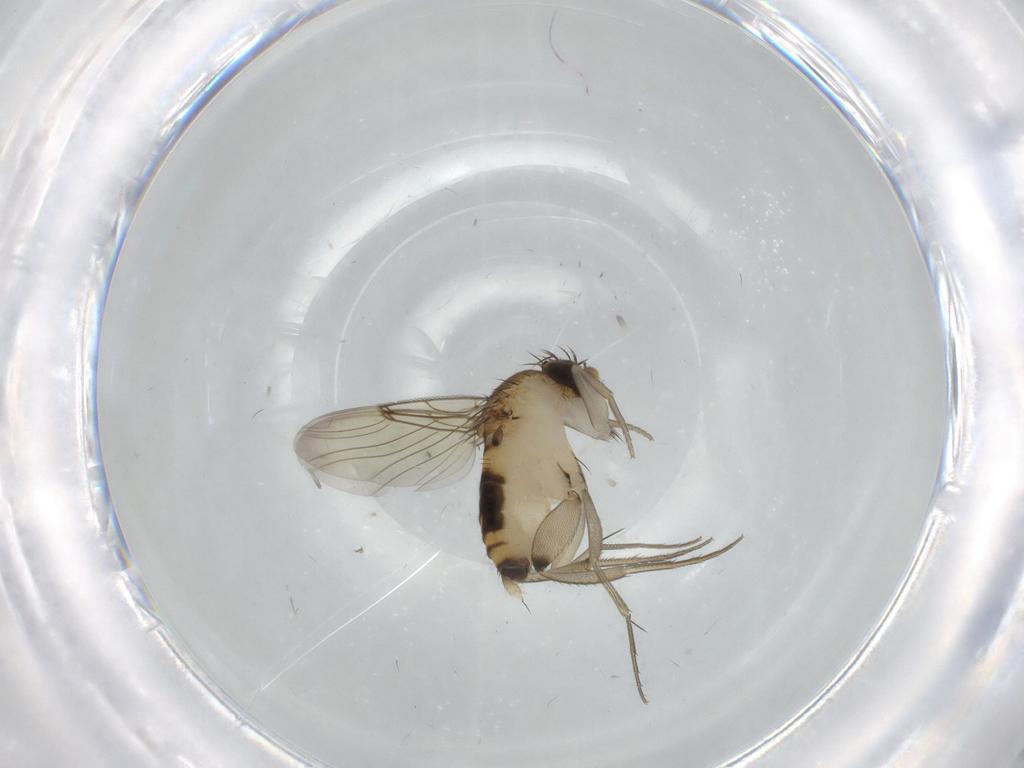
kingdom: Animalia
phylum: Arthropoda
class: Insecta
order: Diptera
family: Phoridae
